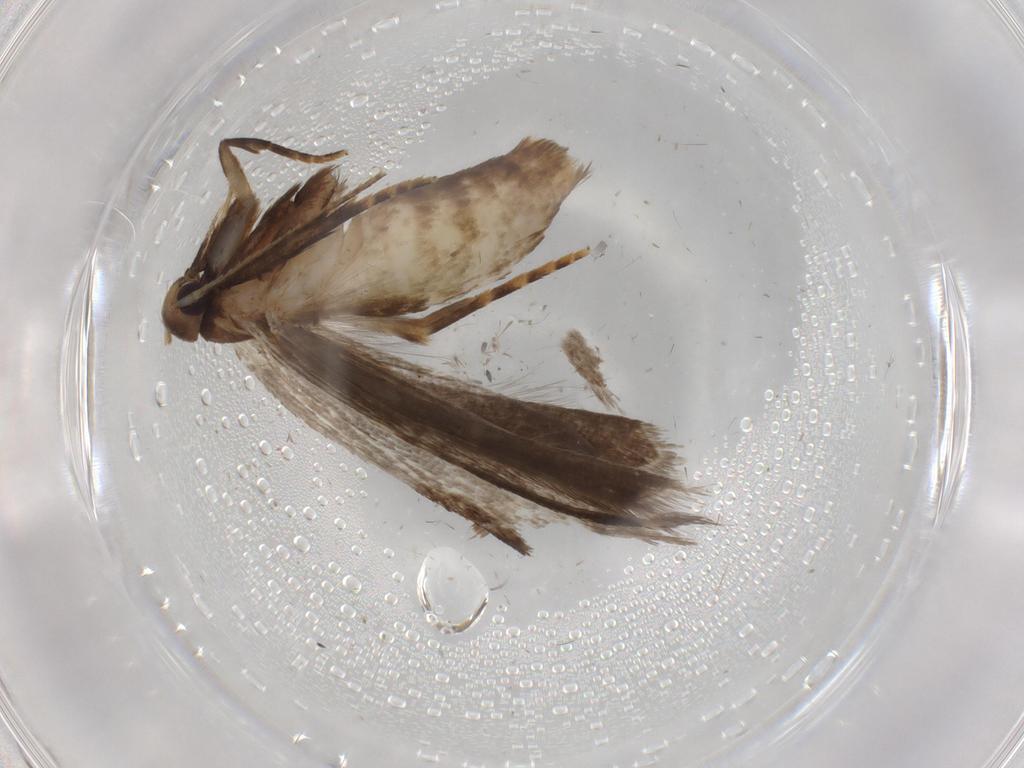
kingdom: Animalia
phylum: Arthropoda
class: Insecta
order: Lepidoptera
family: Gelechiidae
